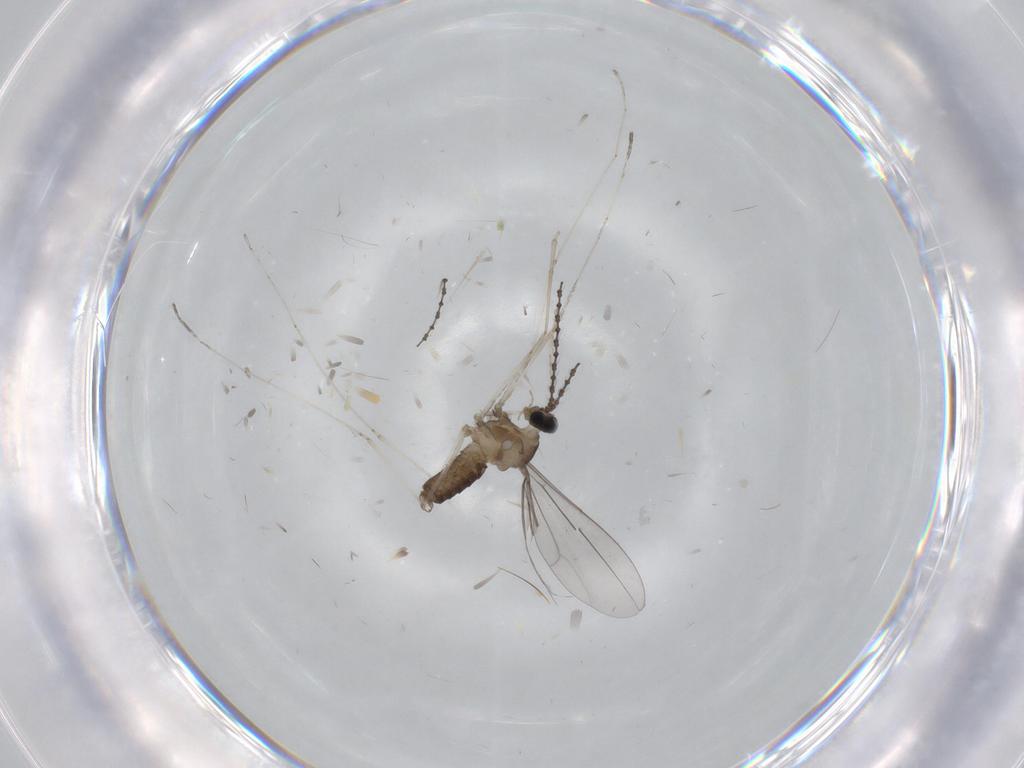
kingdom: Animalia
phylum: Arthropoda
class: Insecta
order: Diptera
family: Cecidomyiidae
